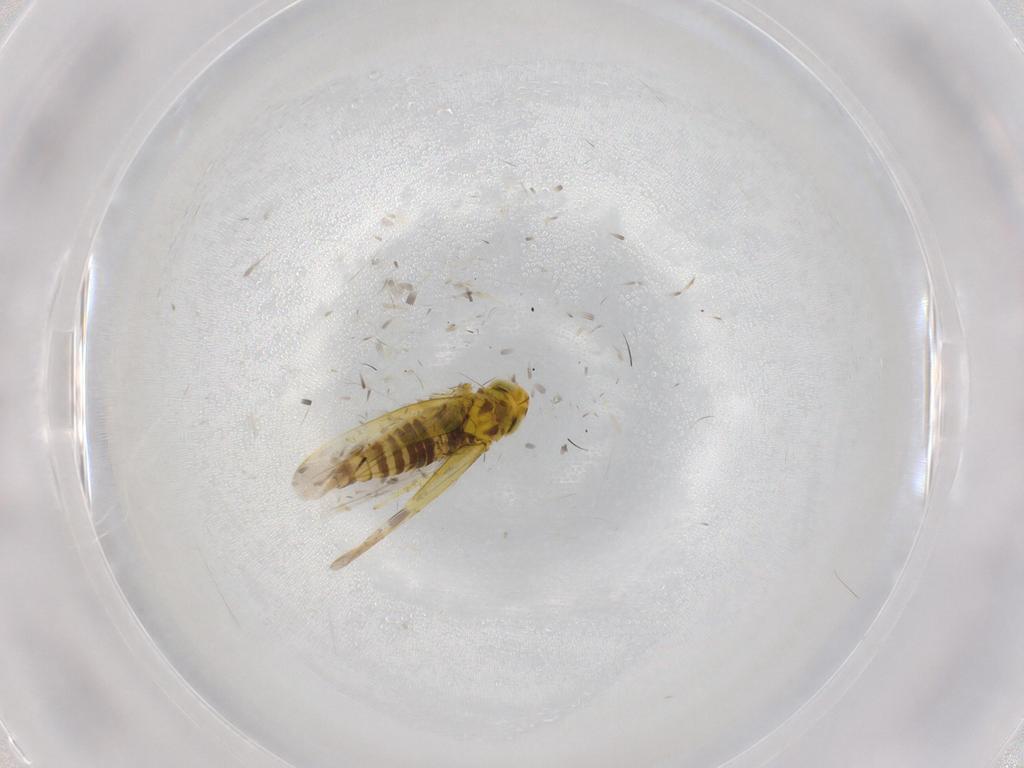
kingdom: Animalia
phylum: Arthropoda
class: Insecta
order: Hemiptera
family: Cicadellidae
